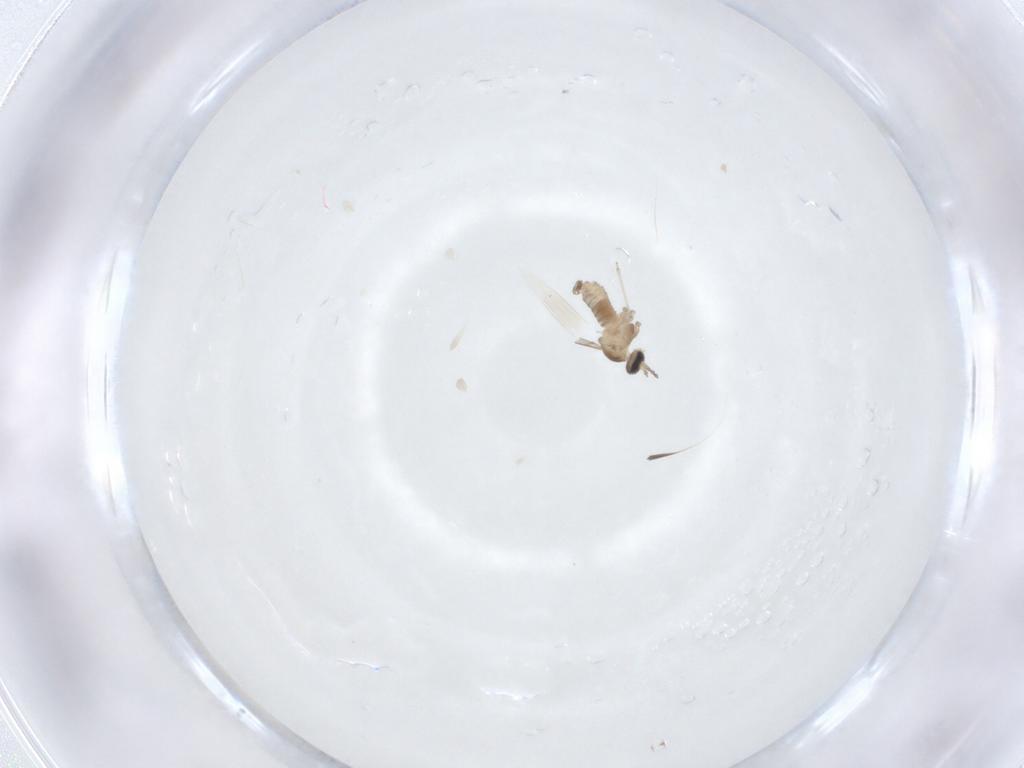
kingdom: Animalia
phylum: Arthropoda
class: Insecta
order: Diptera
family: Cecidomyiidae
